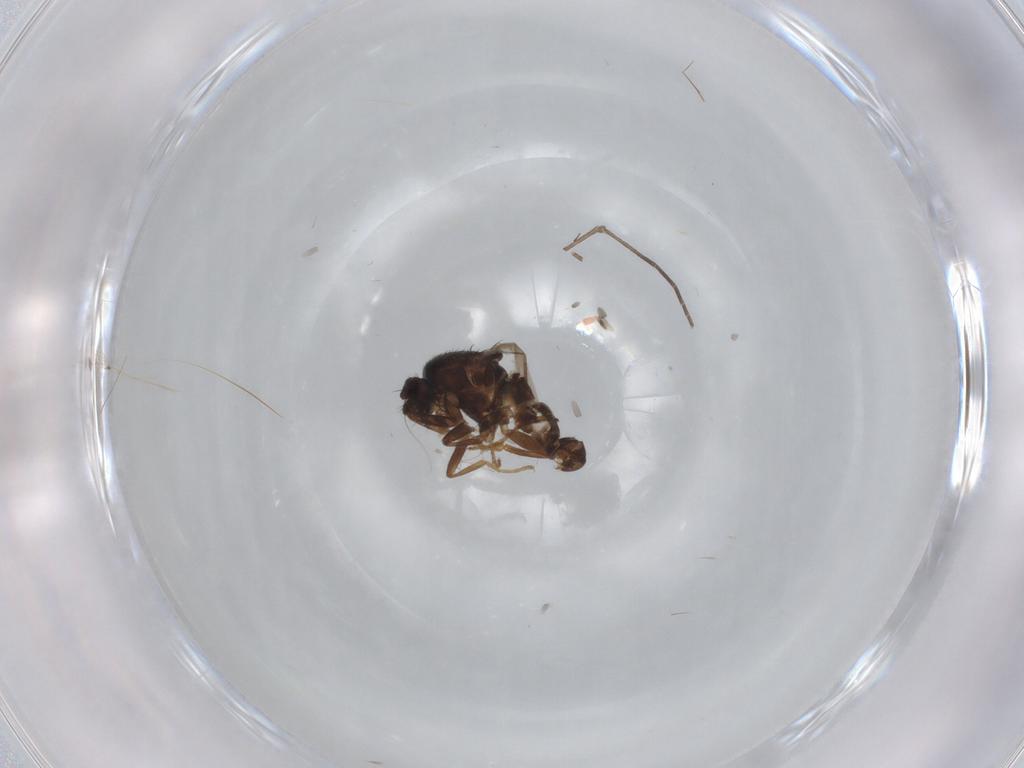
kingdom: Animalia
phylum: Arthropoda
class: Insecta
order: Diptera
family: Sphaeroceridae
